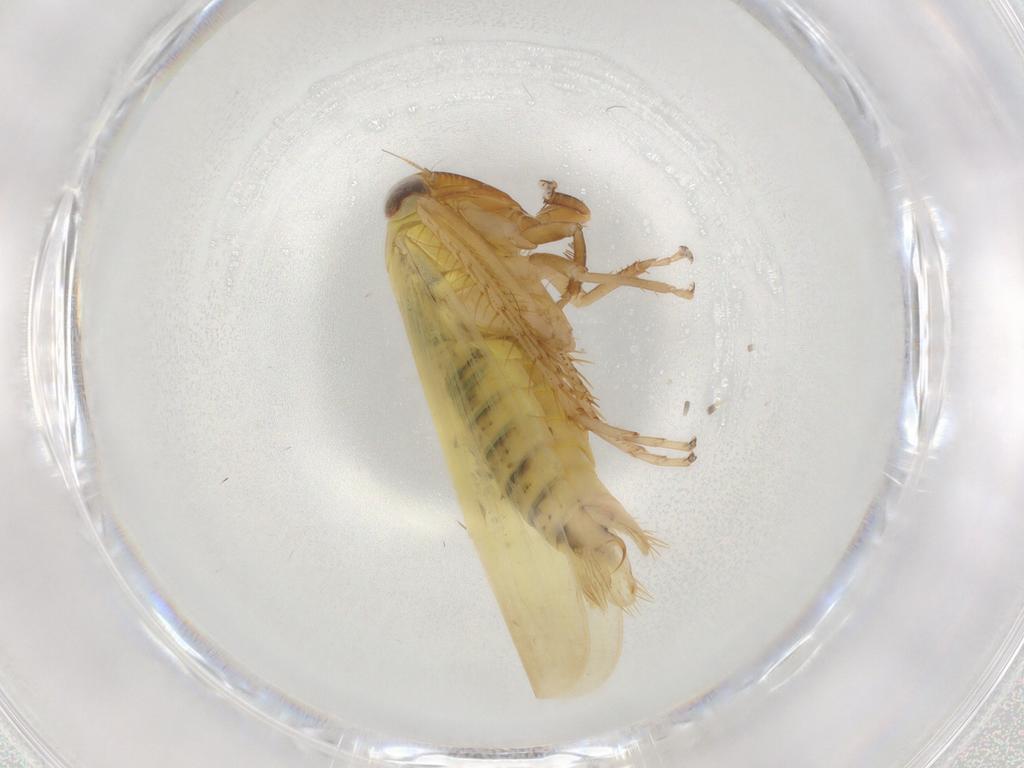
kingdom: Animalia
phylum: Arthropoda
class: Insecta
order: Hemiptera
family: Cicadellidae
